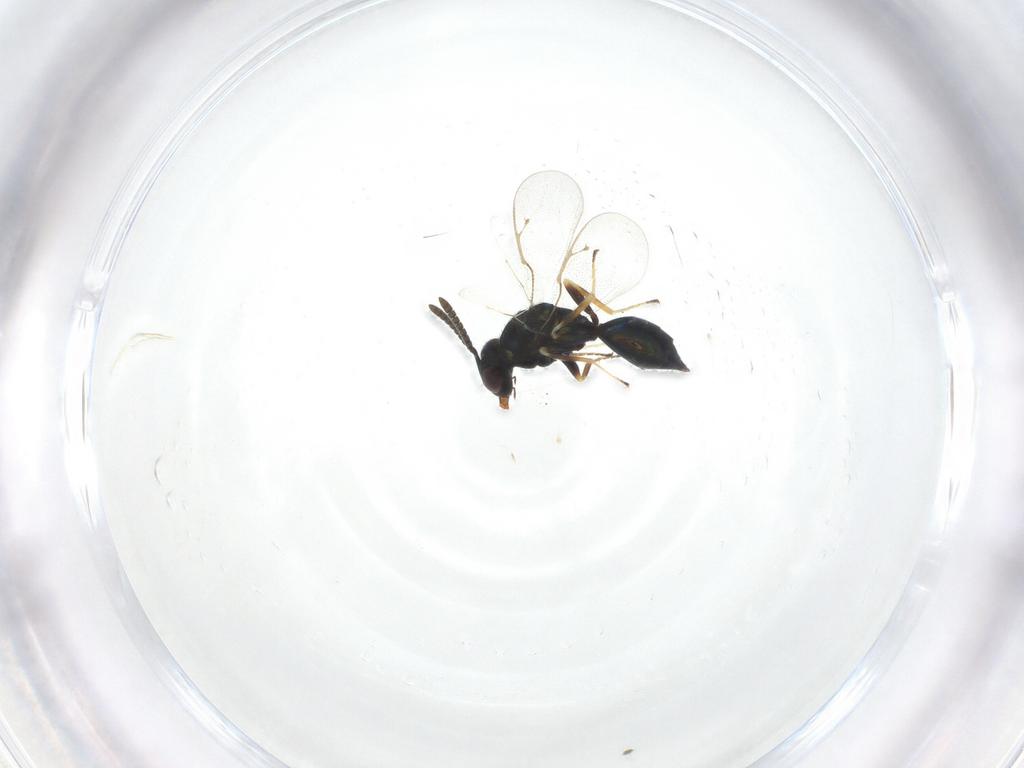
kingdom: Animalia
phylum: Arthropoda
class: Insecta
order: Hymenoptera
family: Pteromalidae
